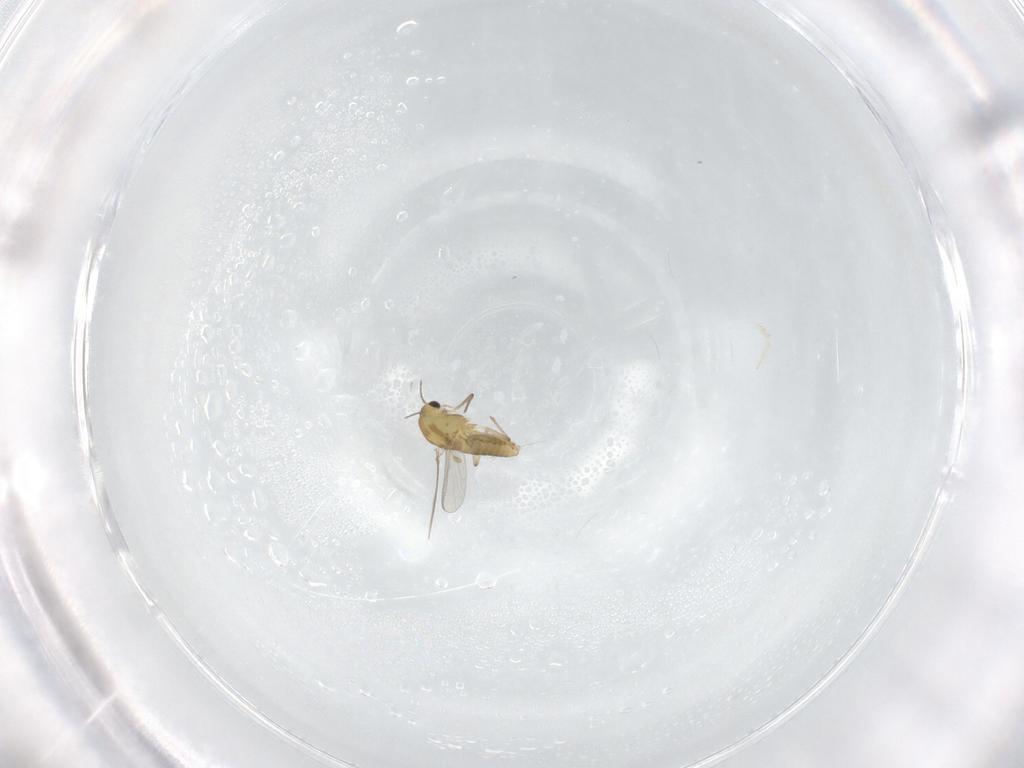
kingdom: Animalia
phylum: Arthropoda
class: Insecta
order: Diptera
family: Chironomidae
